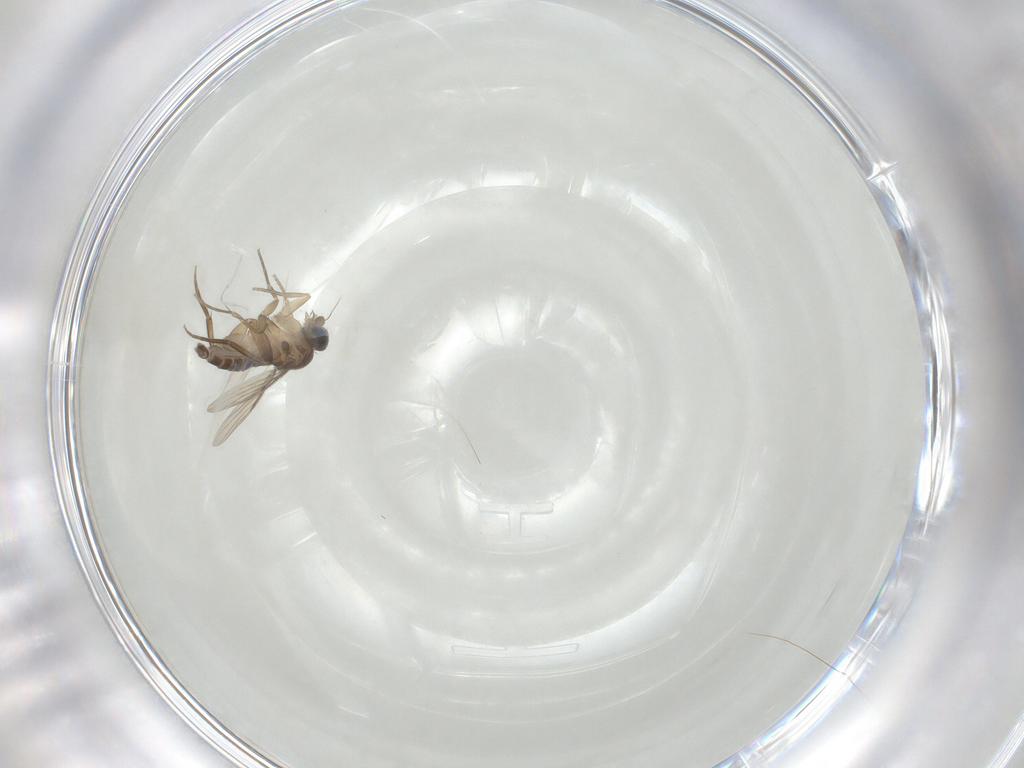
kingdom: Animalia
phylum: Arthropoda
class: Insecta
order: Diptera
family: Phoridae
